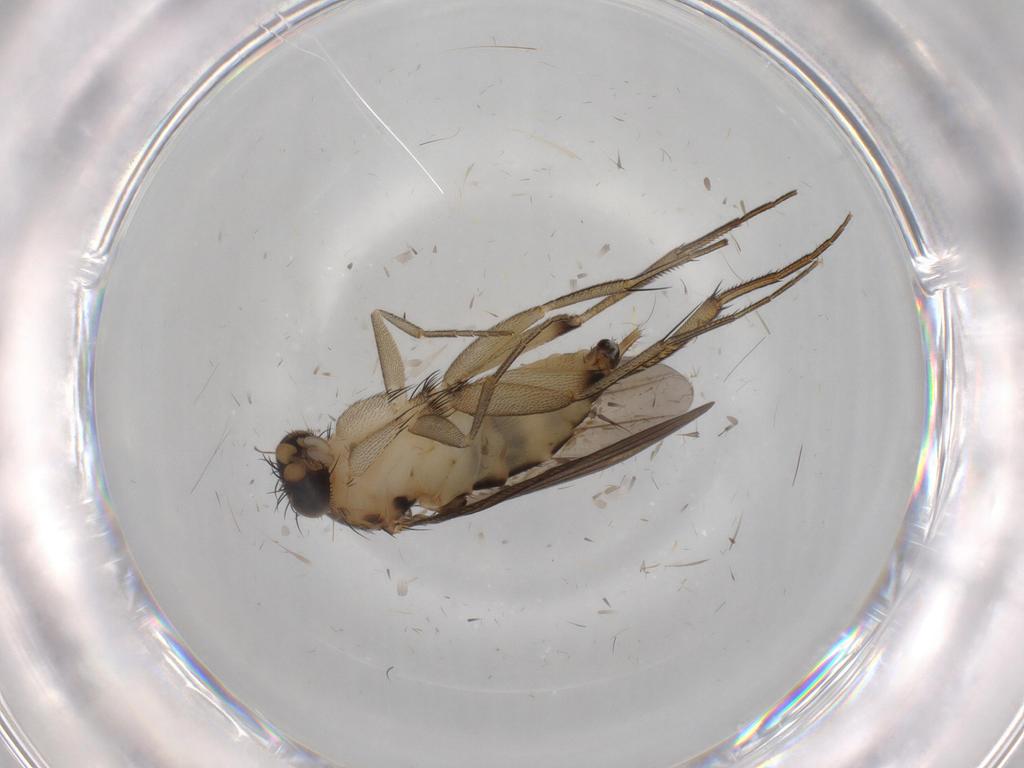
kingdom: Animalia
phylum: Arthropoda
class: Insecta
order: Diptera
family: Phoridae
